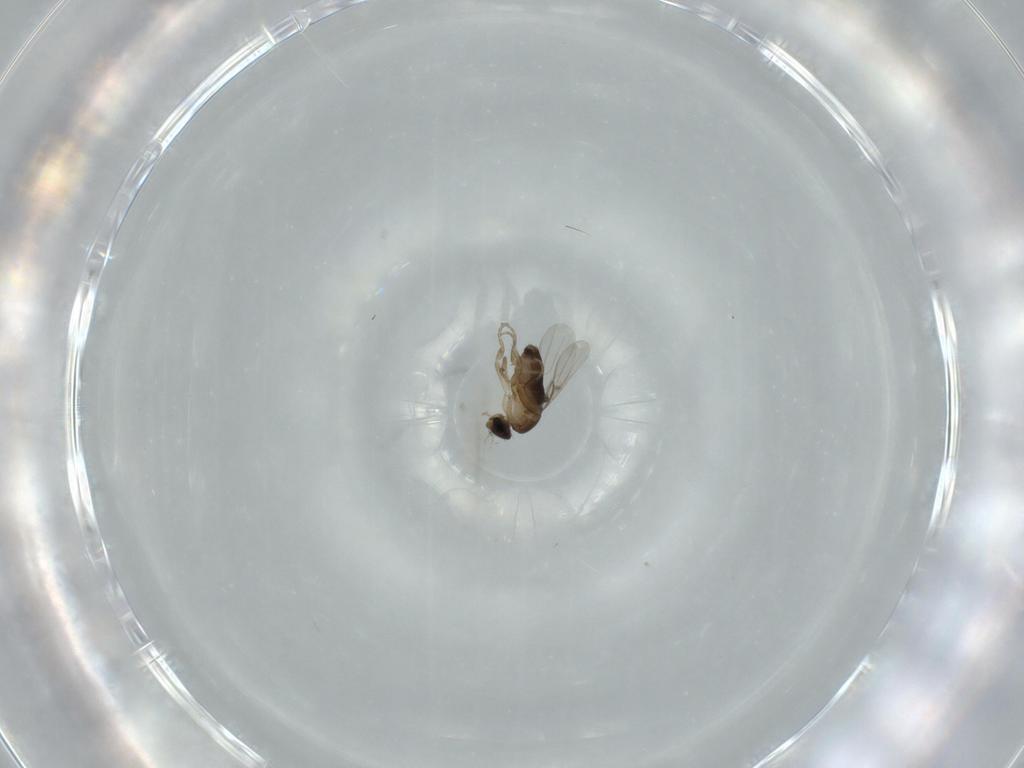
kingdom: Animalia
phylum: Arthropoda
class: Insecta
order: Diptera
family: Phoridae
